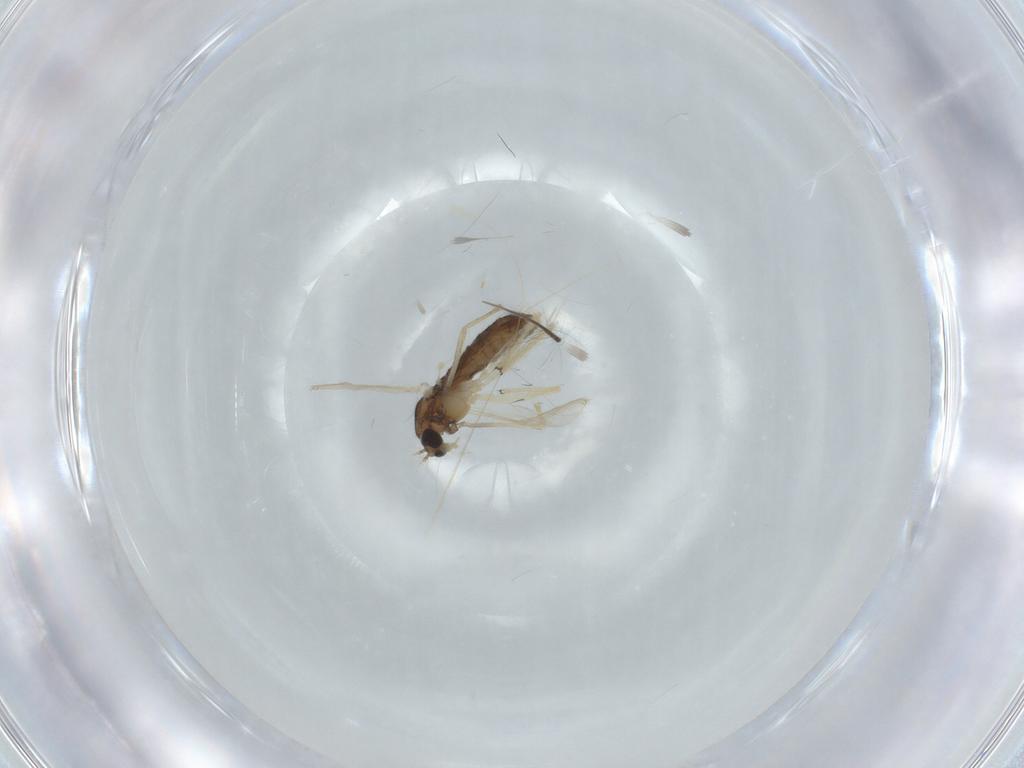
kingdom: Animalia
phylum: Arthropoda
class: Insecta
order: Diptera
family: Chironomidae
